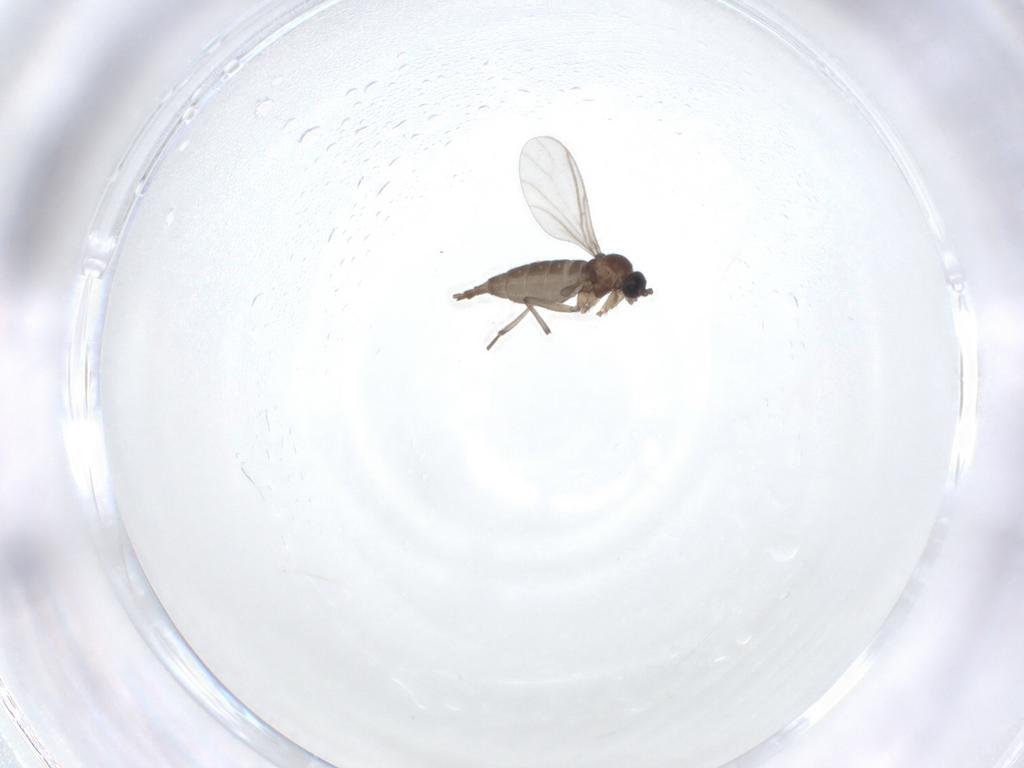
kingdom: Animalia
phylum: Arthropoda
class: Insecta
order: Diptera
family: Sciaridae
